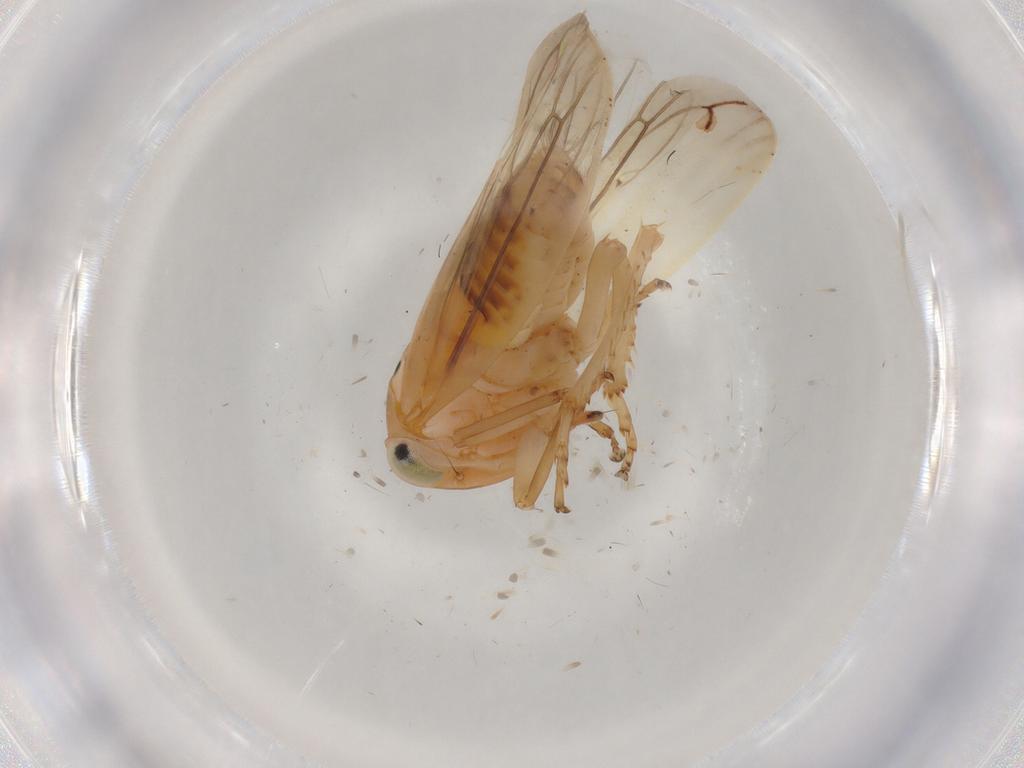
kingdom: Animalia
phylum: Arthropoda
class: Insecta
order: Hemiptera
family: Cicadellidae
